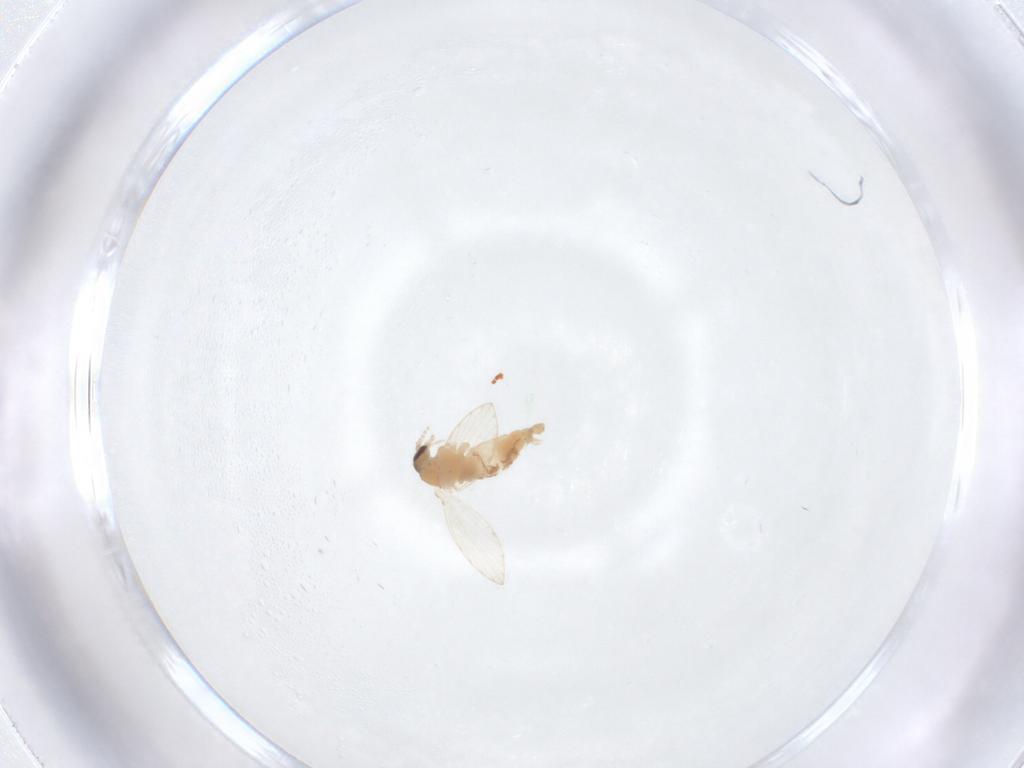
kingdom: Animalia
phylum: Arthropoda
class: Insecta
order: Diptera
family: Psychodidae
